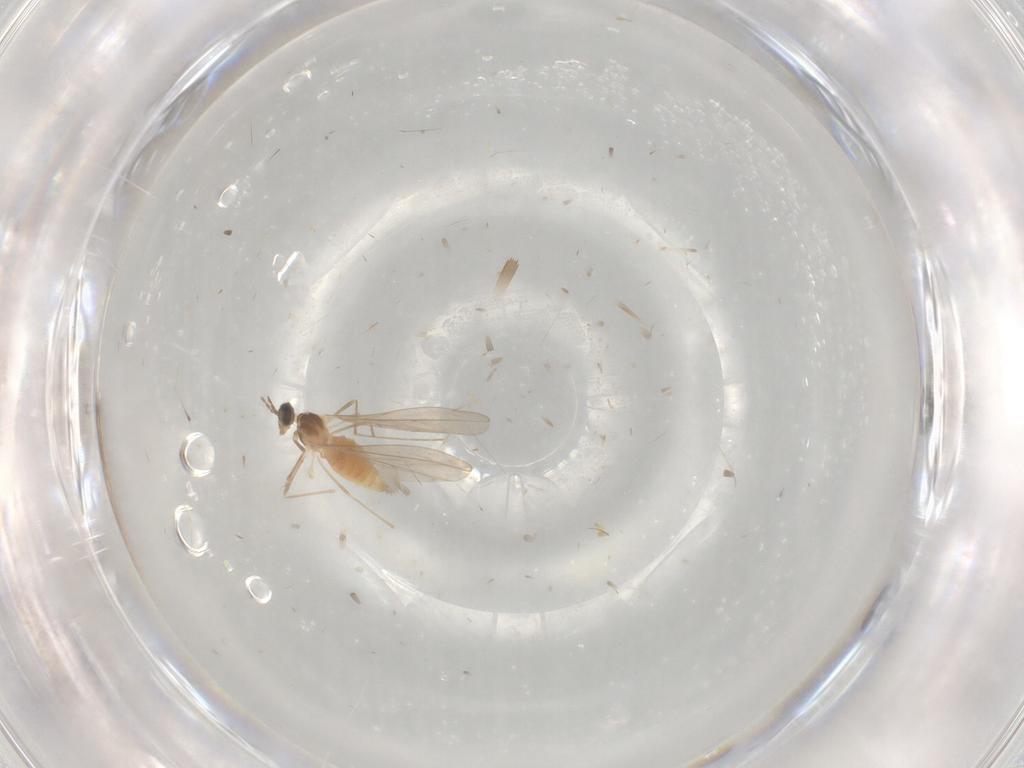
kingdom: Animalia
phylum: Arthropoda
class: Insecta
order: Diptera
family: Cecidomyiidae
